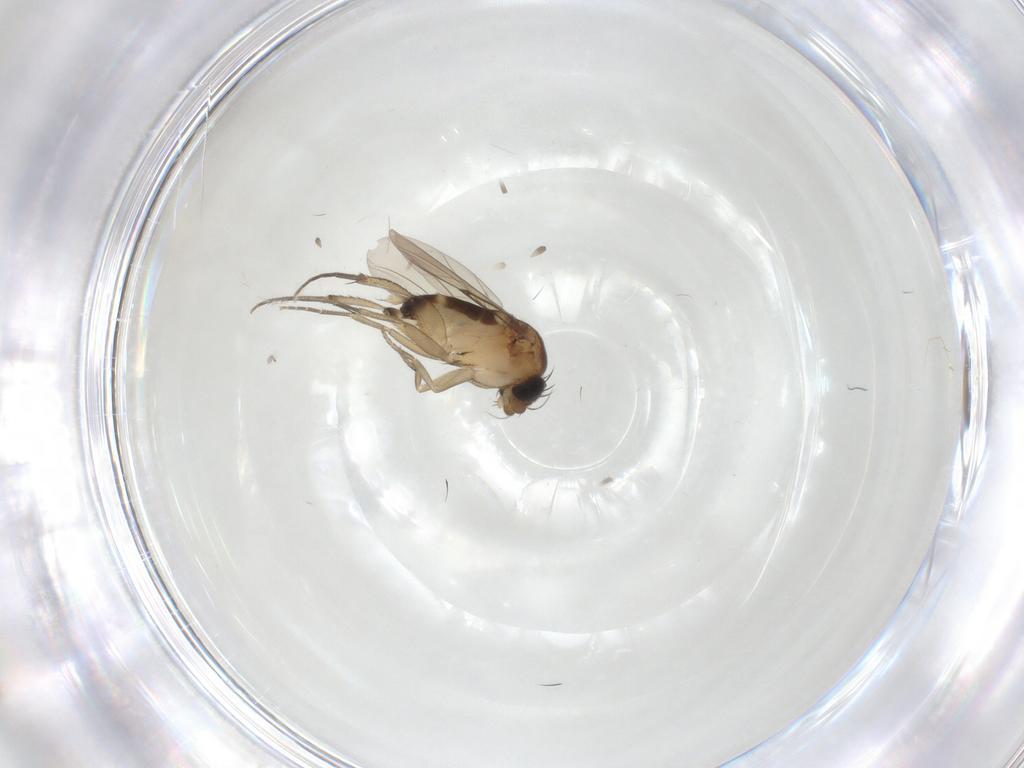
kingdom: Animalia
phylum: Arthropoda
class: Insecta
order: Diptera
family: Phoridae
